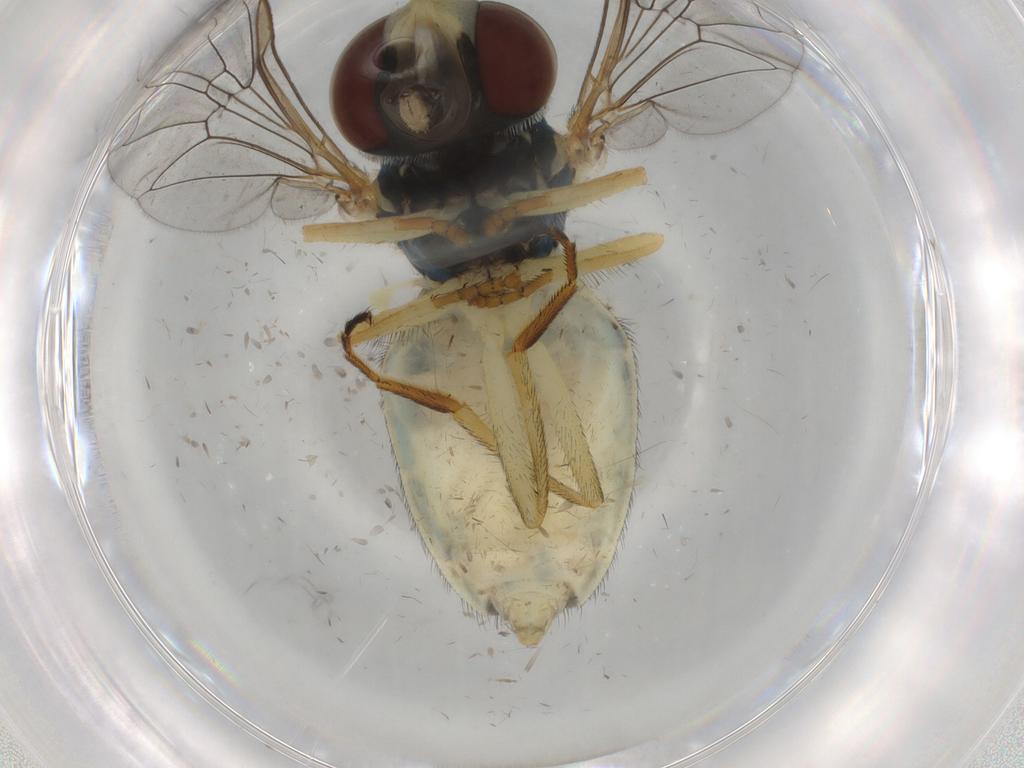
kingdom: Animalia
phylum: Arthropoda
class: Insecta
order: Diptera
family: Syrphidae
